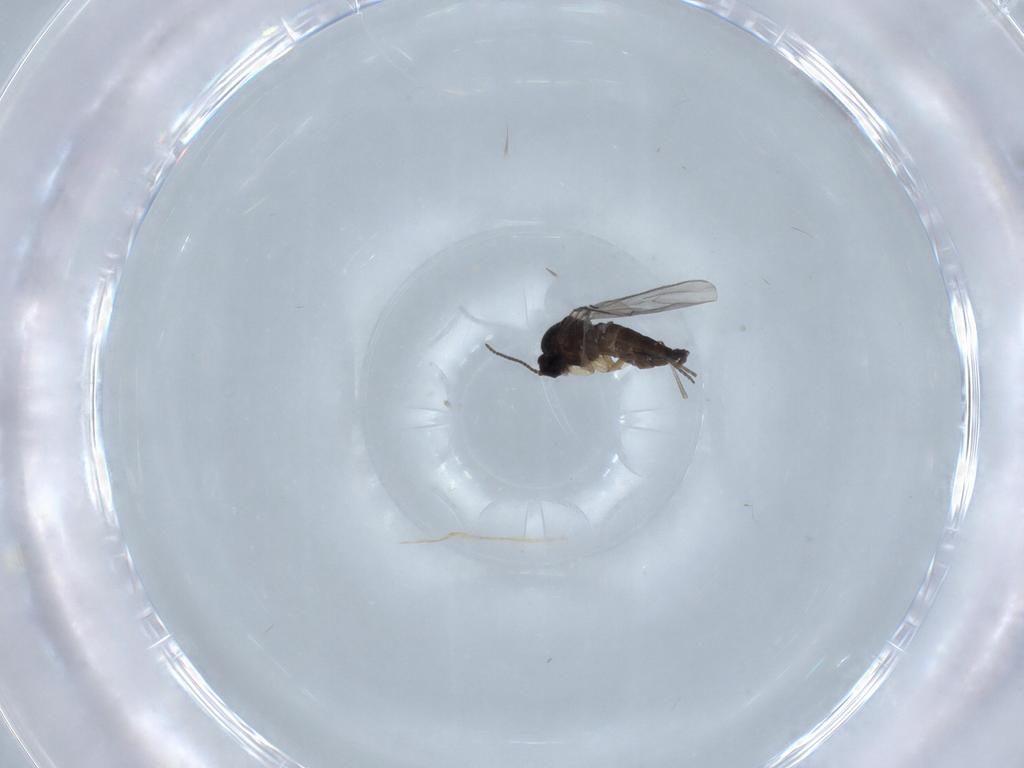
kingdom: Animalia
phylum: Arthropoda
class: Insecta
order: Diptera
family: Sciaridae
